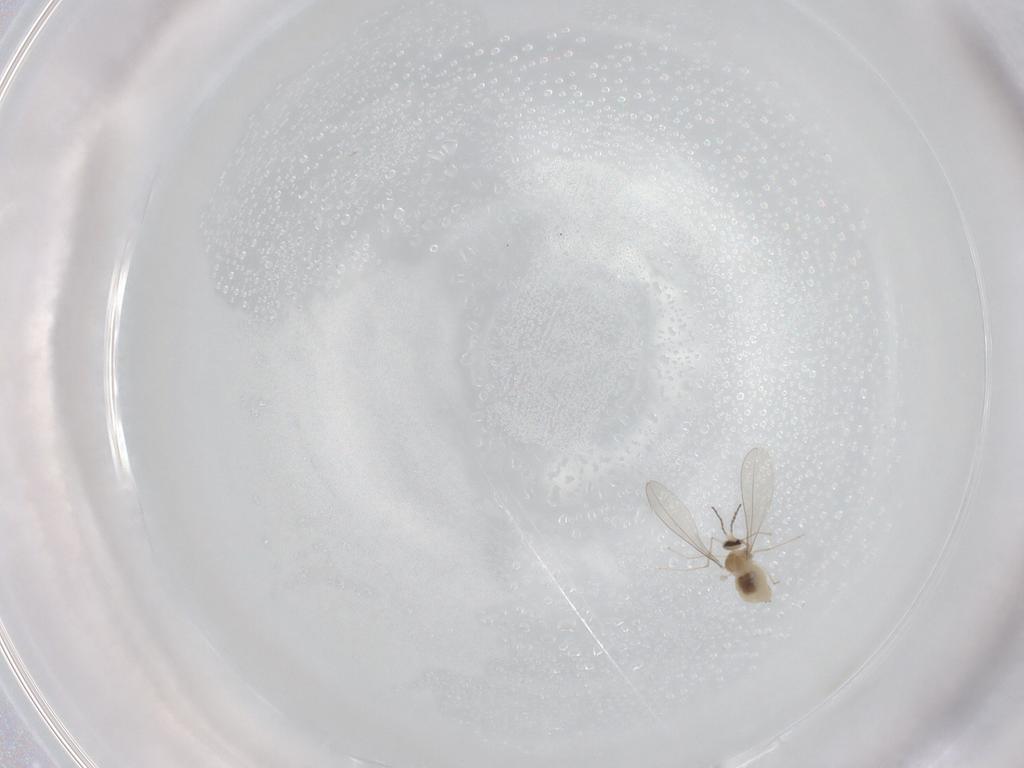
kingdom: Animalia
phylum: Arthropoda
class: Insecta
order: Diptera
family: Cecidomyiidae
